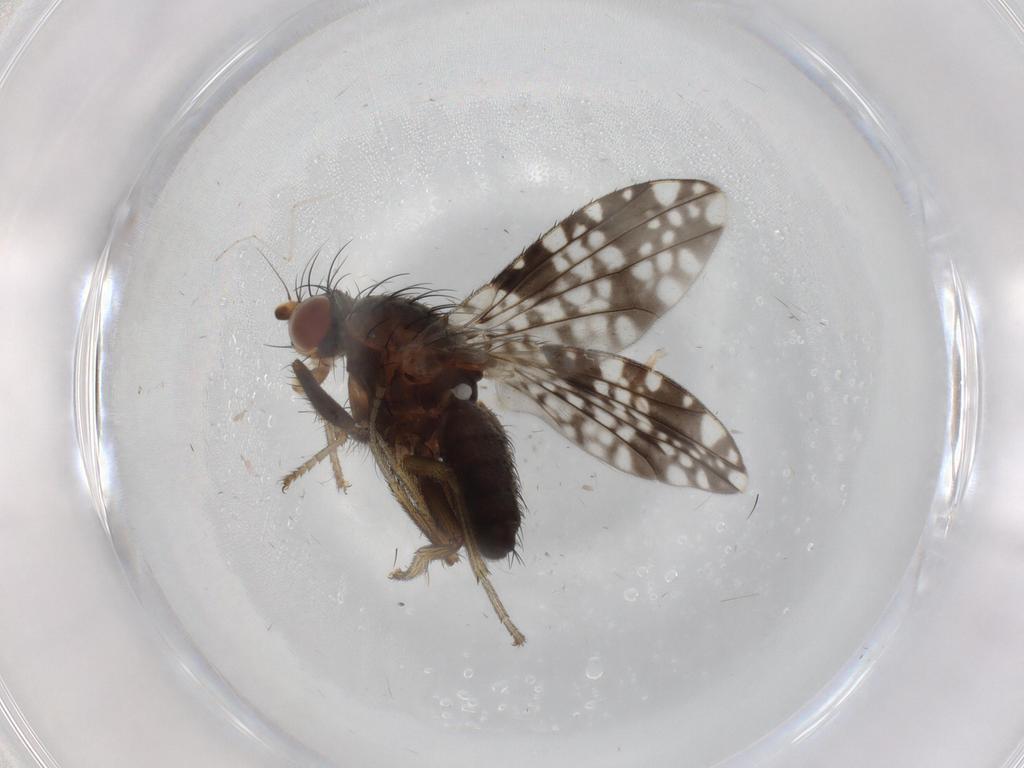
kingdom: Animalia
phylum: Arthropoda
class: Insecta
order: Diptera
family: Tephritidae
